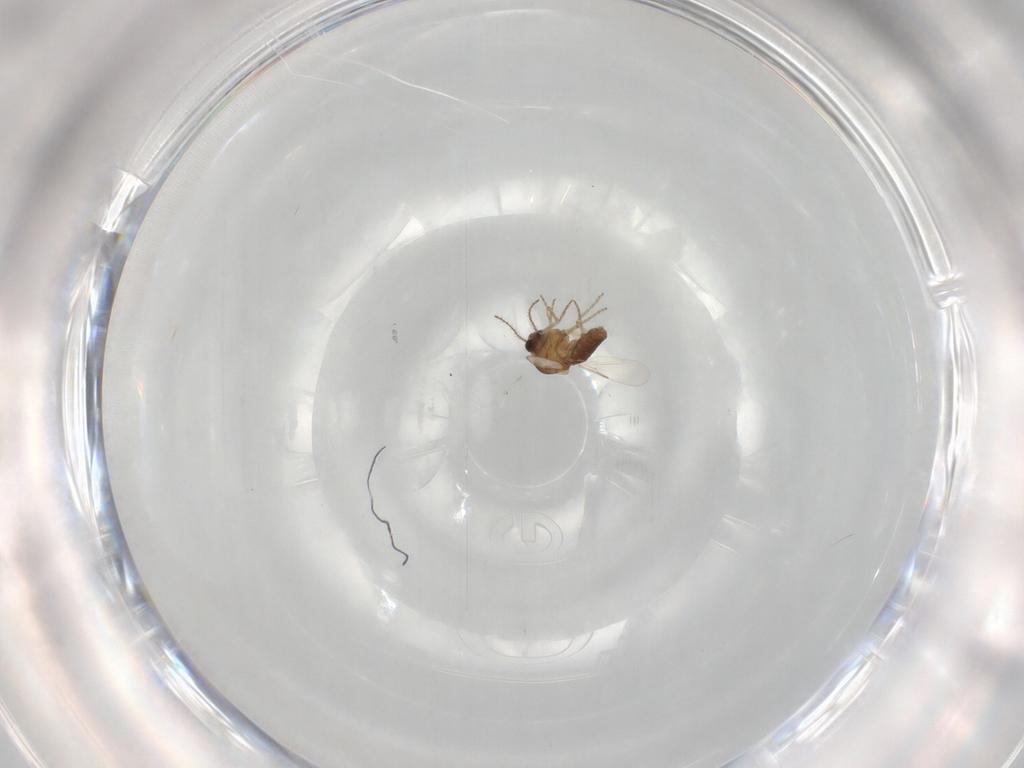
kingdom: Animalia
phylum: Arthropoda
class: Insecta
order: Diptera
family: Ceratopogonidae
